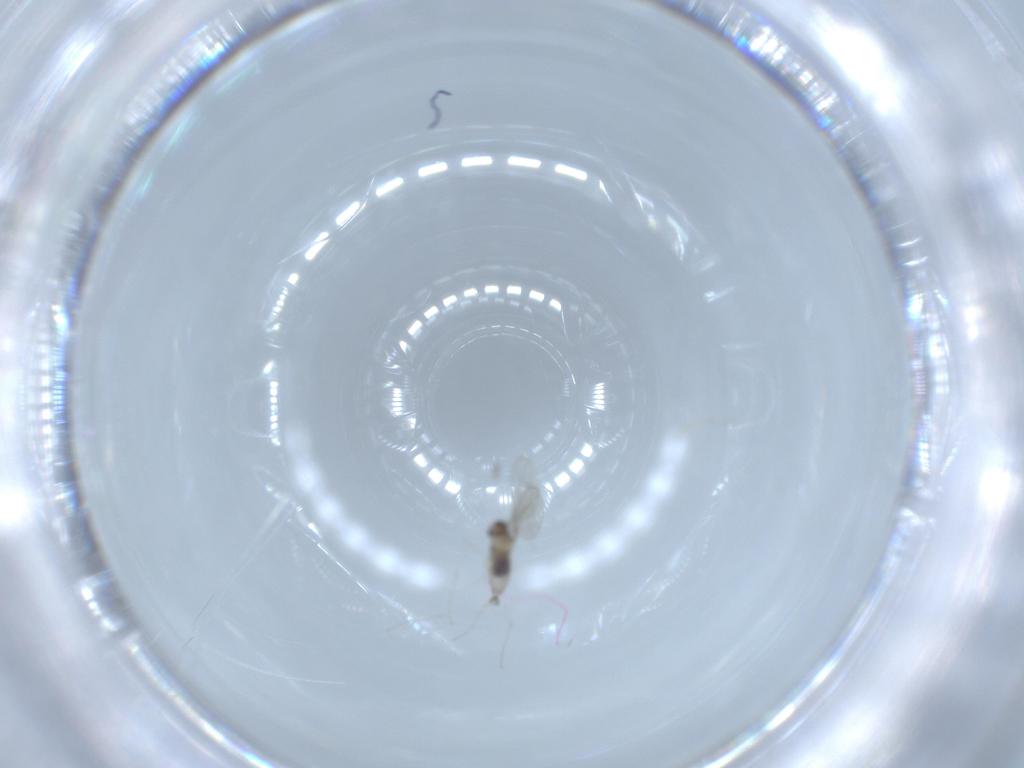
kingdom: Animalia
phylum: Arthropoda
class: Insecta
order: Diptera
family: Cecidomyiidae
